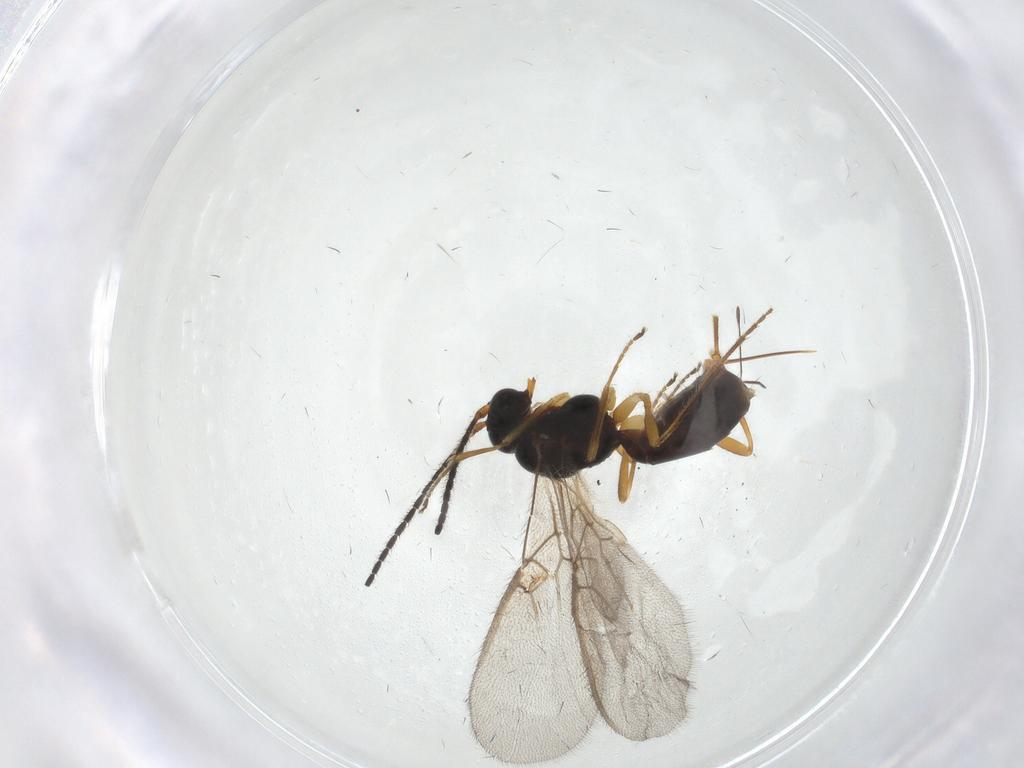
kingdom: Animalia
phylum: Arthropoda
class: Insecta
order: Hymenoptera
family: Braconidae
